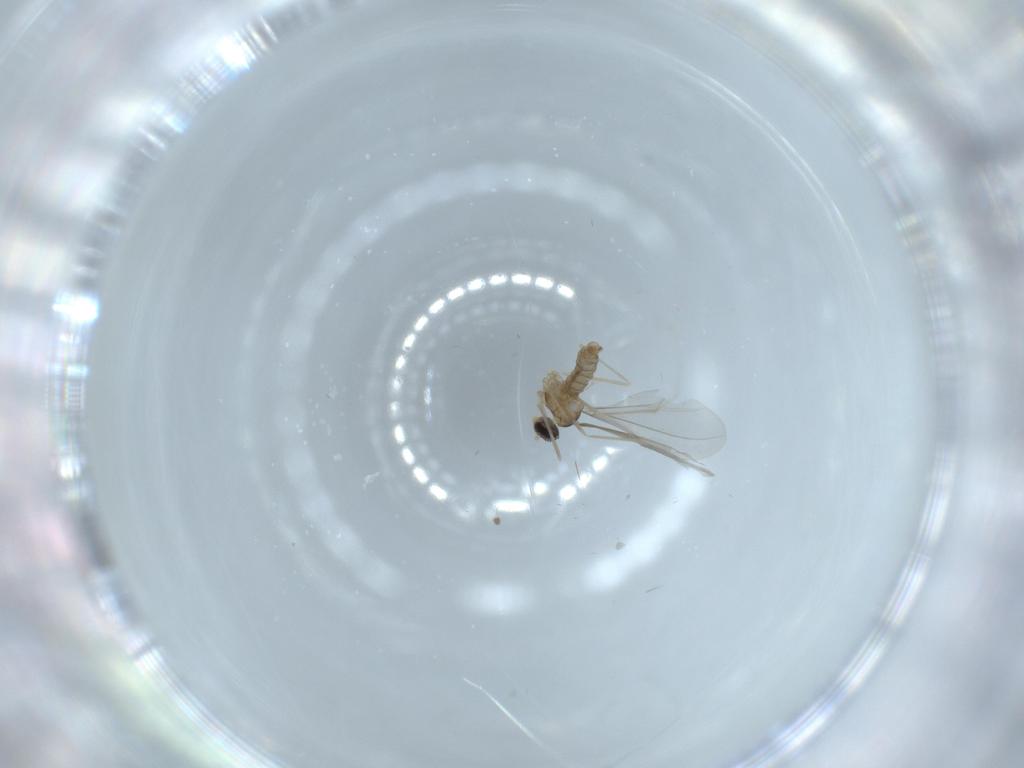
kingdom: Animalia
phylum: Arthropoda
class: Insecta
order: Diptera
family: Cecidomyiidae
